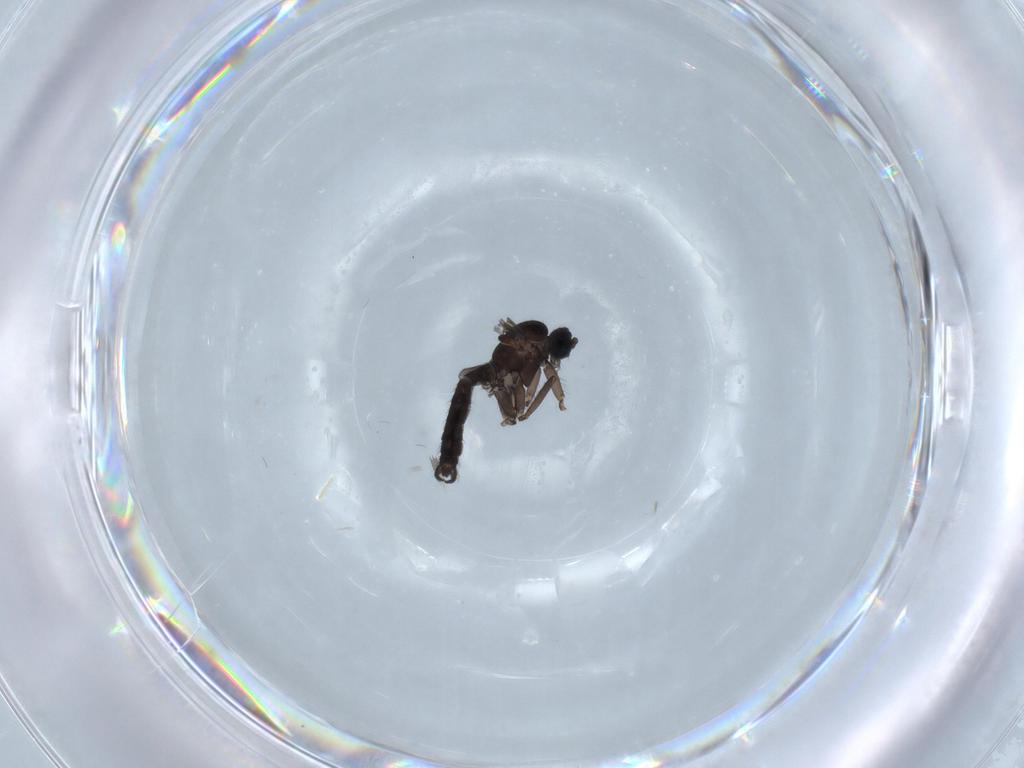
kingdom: Animalia
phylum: Arthropoda
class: Insecta
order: Diptera
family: Sciaridae
